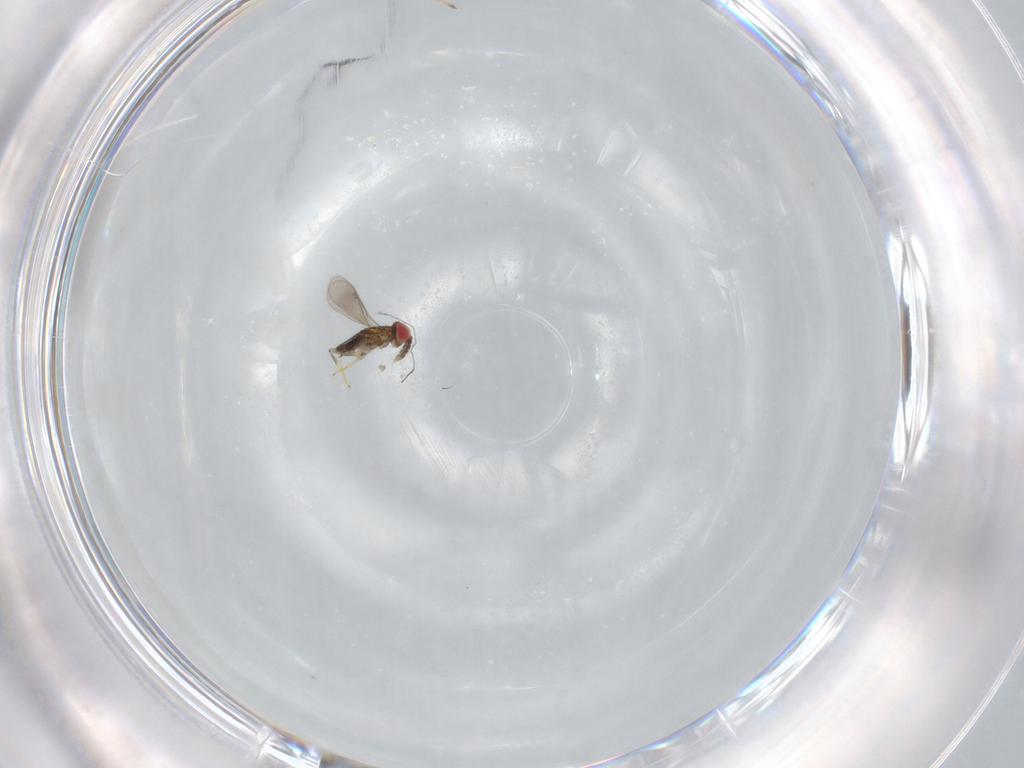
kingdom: Animalia
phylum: Arthropoda
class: Insecta
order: Hymenoptera
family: Aphelinidae
